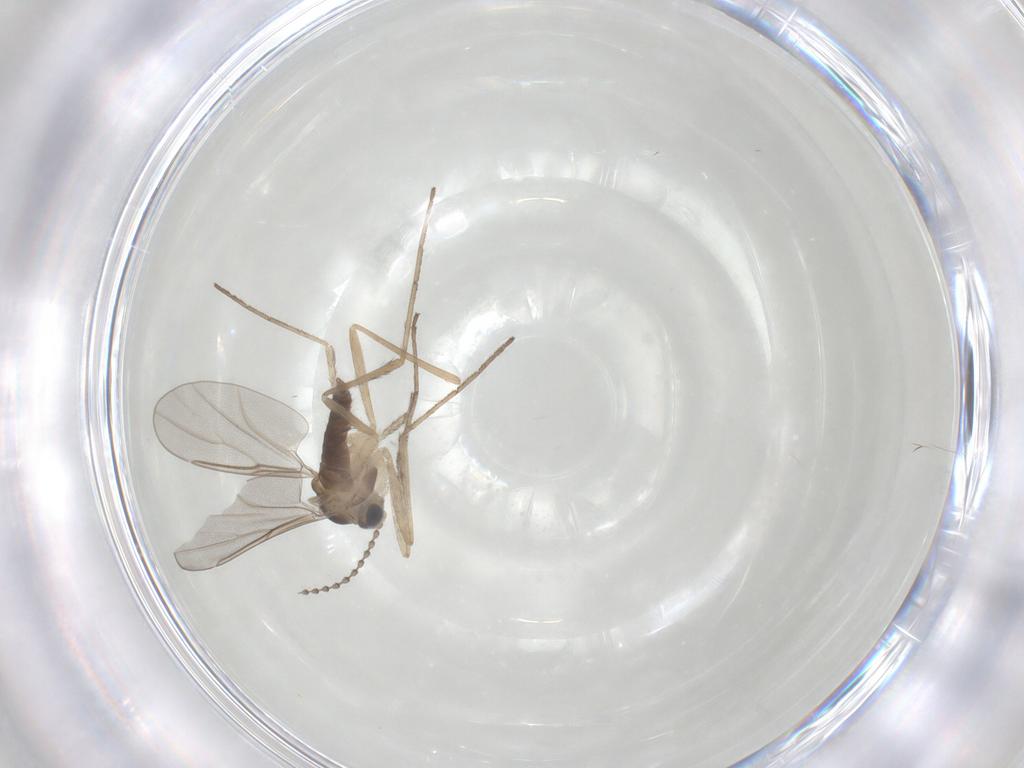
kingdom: Animalia
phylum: Arthropoda
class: Insecta
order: Diptera
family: Cecidomyiidae
